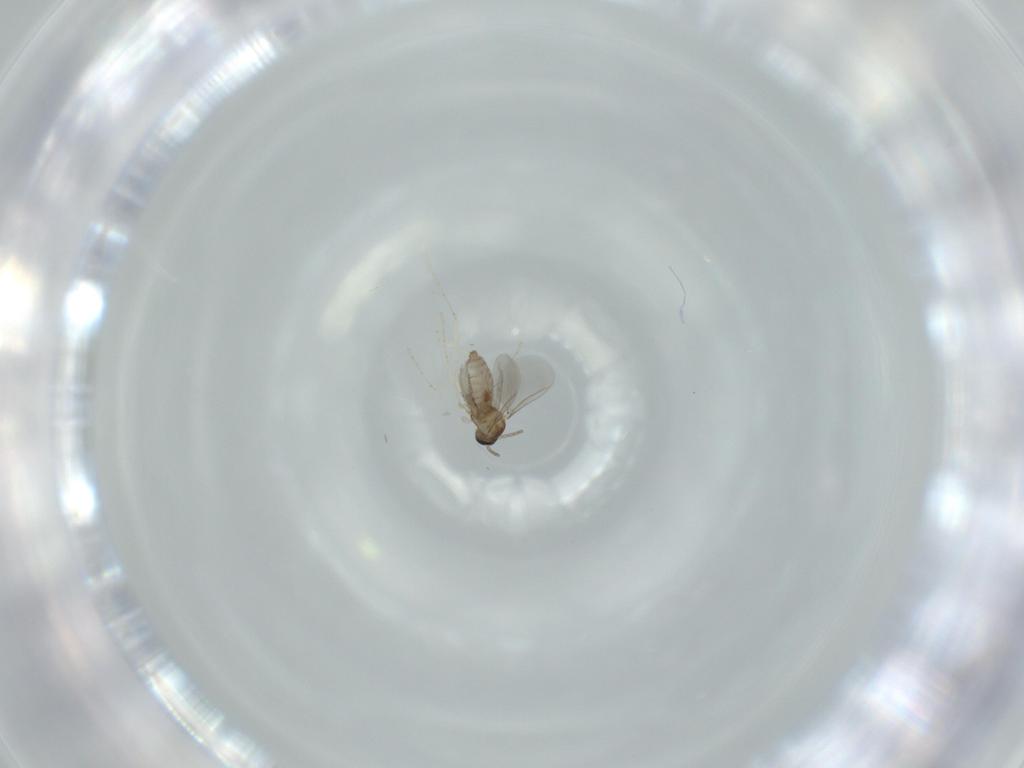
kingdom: Animalia
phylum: Arthropoda
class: Insecta
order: Diptera
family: Cecidomyiidae
